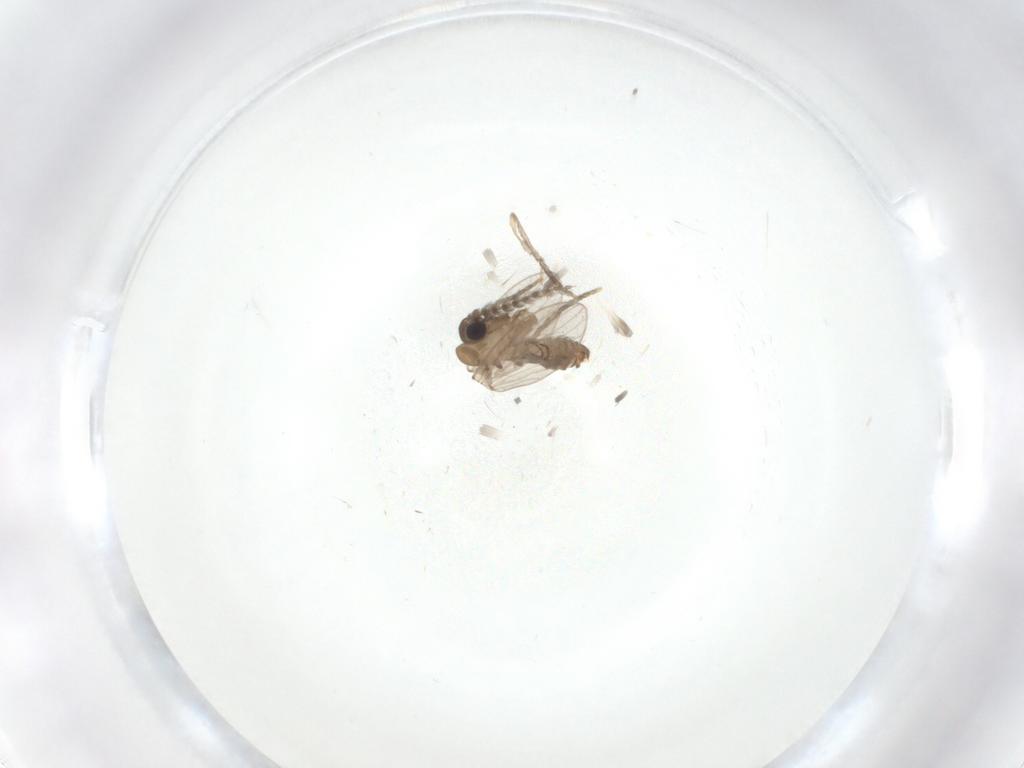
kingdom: Animalia
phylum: Arthropoda
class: Insecta
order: Diptera
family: Psychodidae
